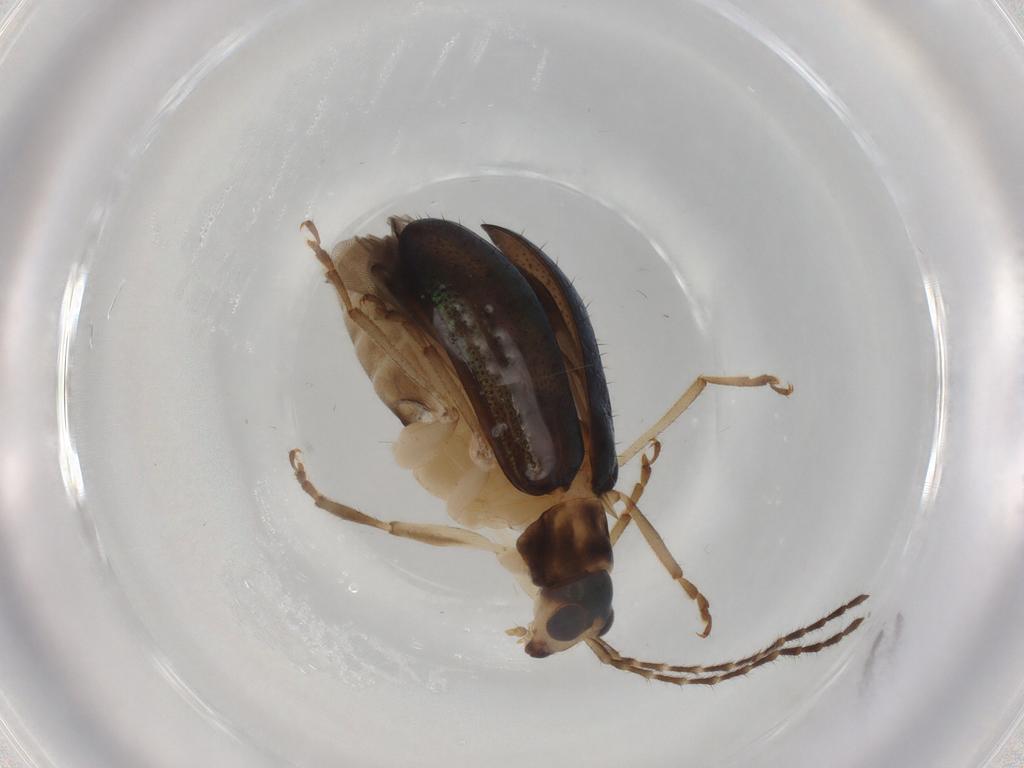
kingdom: Animalia
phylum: Arthropoda
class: Insecta
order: Coleoptera
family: Chrysomelidae
